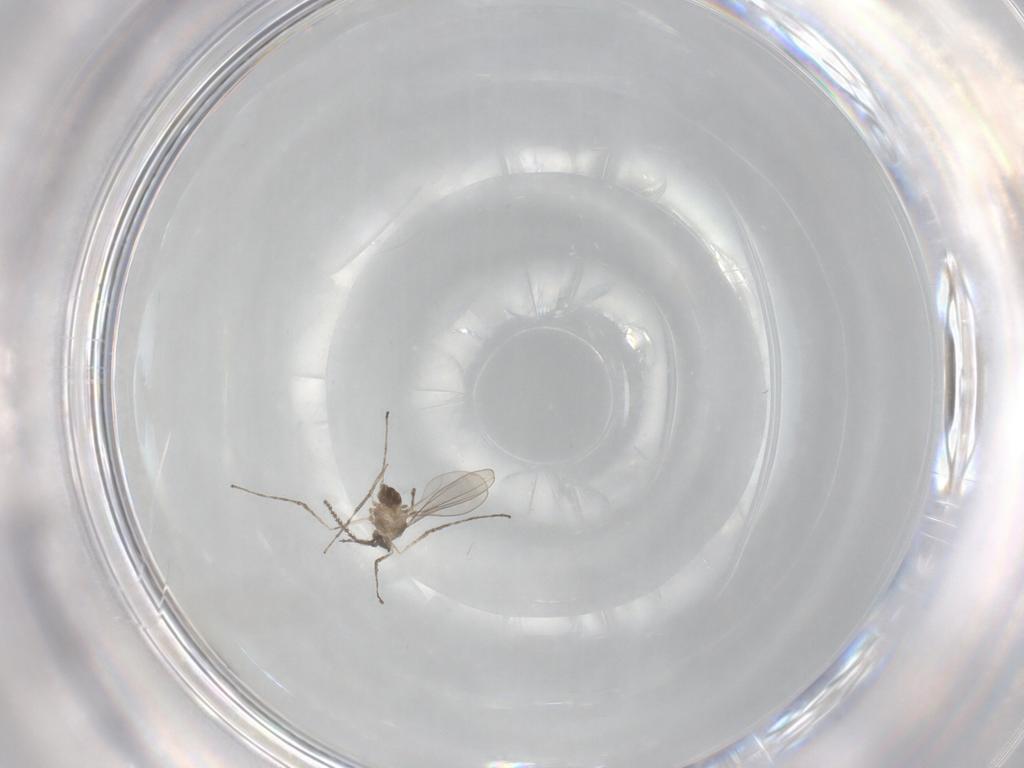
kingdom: Animalia
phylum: Arthropoda
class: Insecta
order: Diptera
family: Cecidomyiidae
